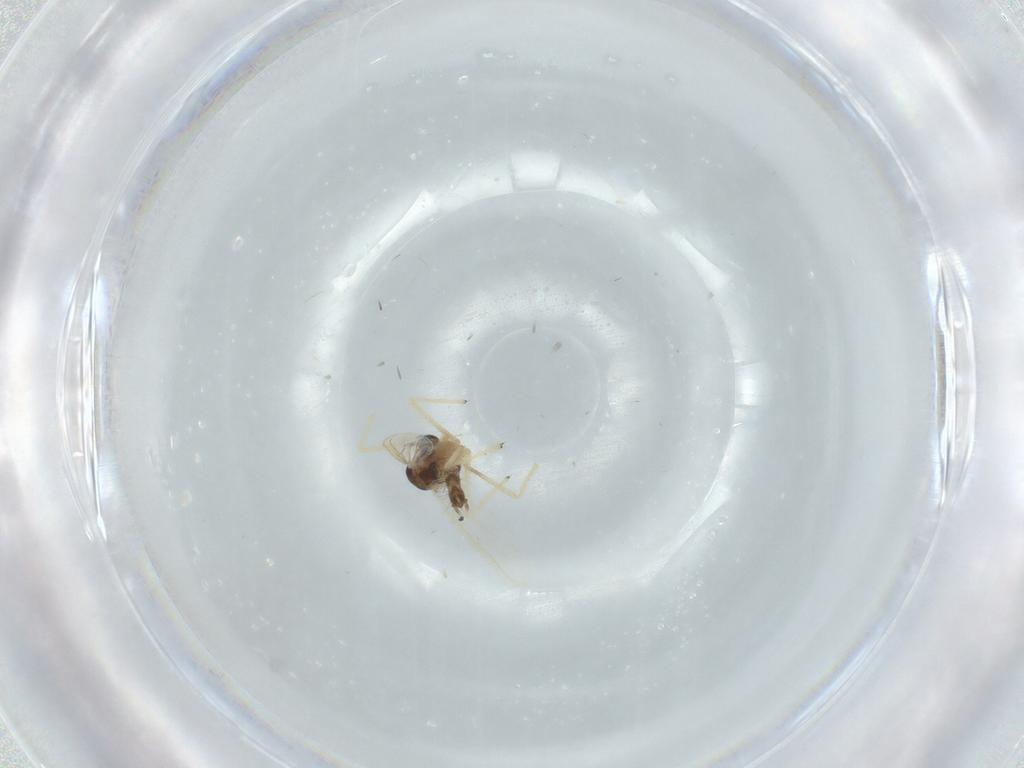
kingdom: Animalia
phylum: Arthropoda
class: Insecta
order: Diptera
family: Chironomidae
